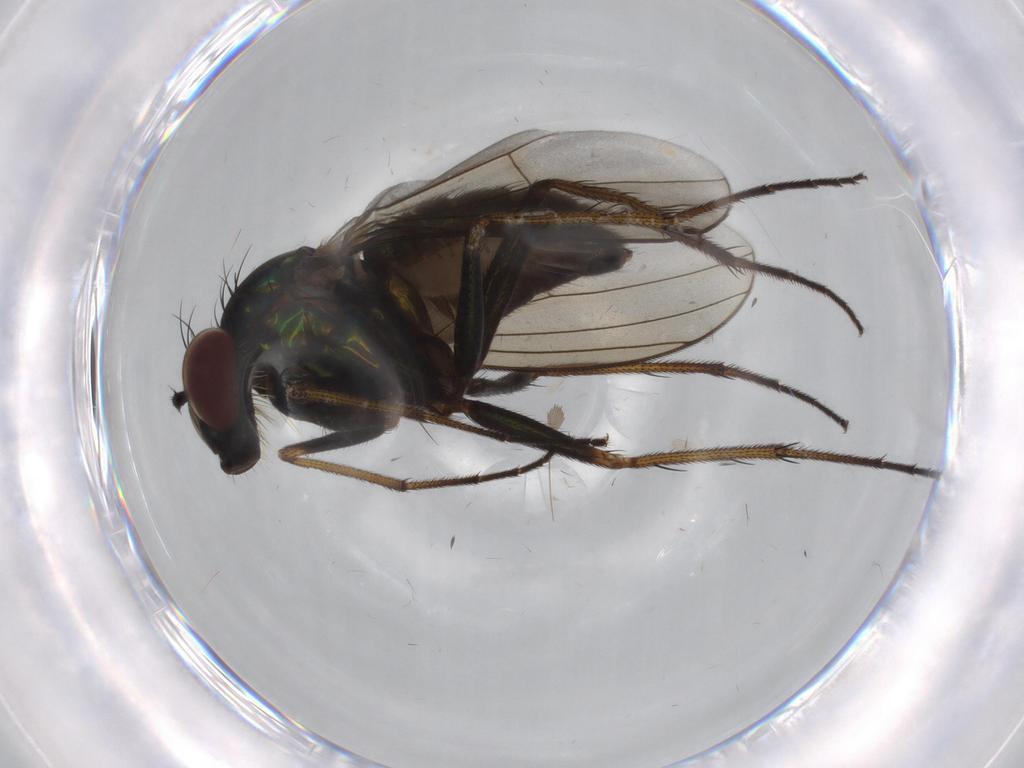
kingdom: Animalia
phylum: Arthropoda
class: Insecta
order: Diptera
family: Dolichopodidae
